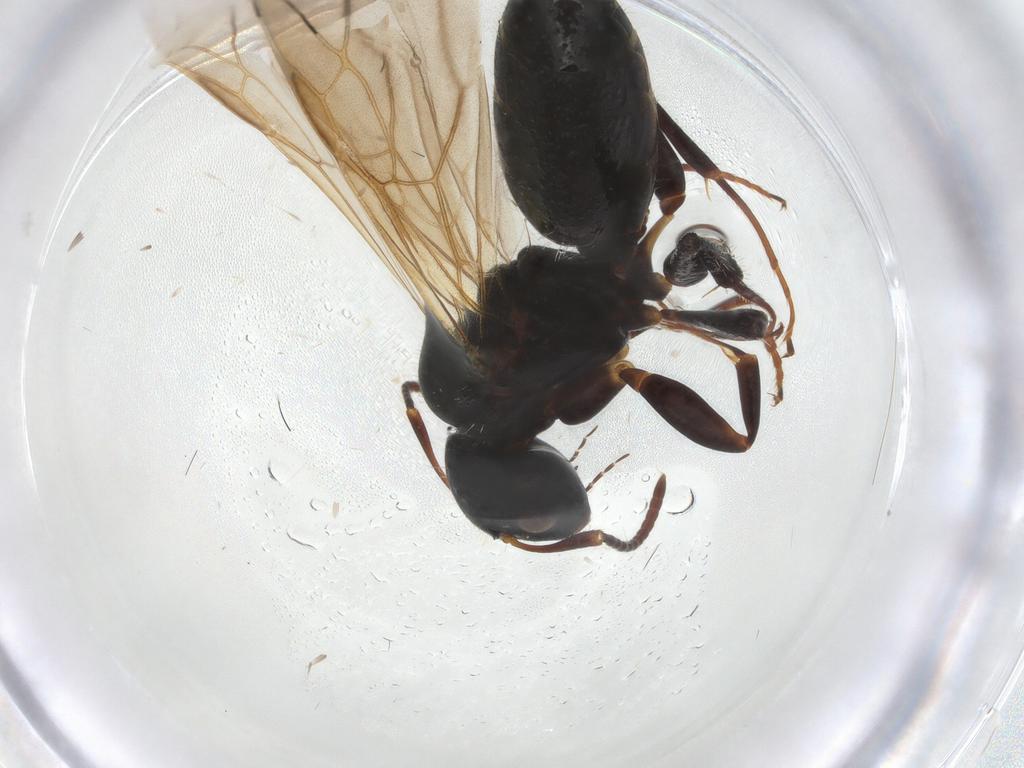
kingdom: Animalia
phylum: Arthropoda
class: Insecta
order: Hymenoptera
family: Formicidae
